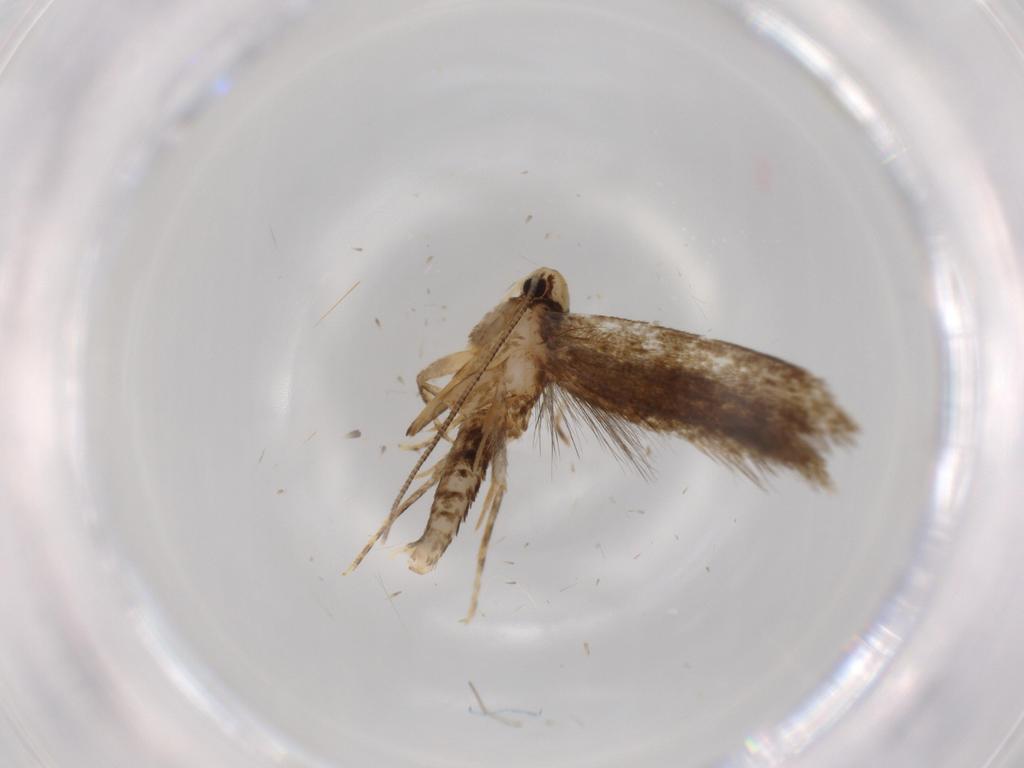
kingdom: Animalia
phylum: Arthropoda
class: Insecta
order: Lepidoptera
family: Tineidae
